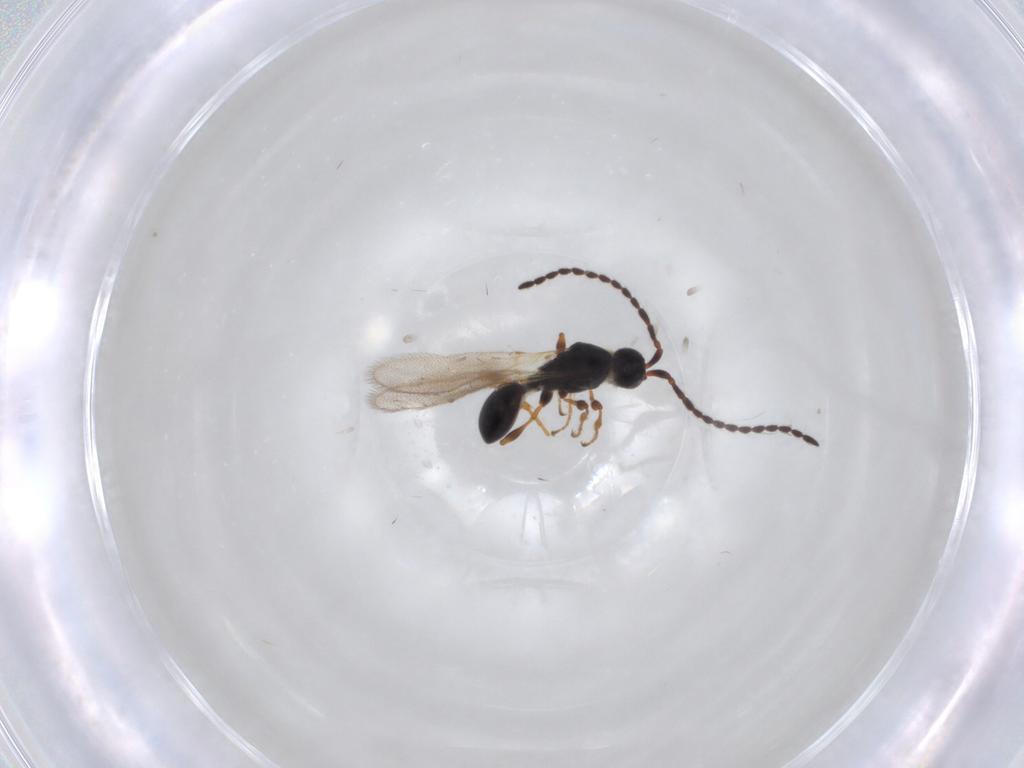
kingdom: Animalia
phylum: Arthropoda
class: Insecta
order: Hymenoptera
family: Diapriidae
